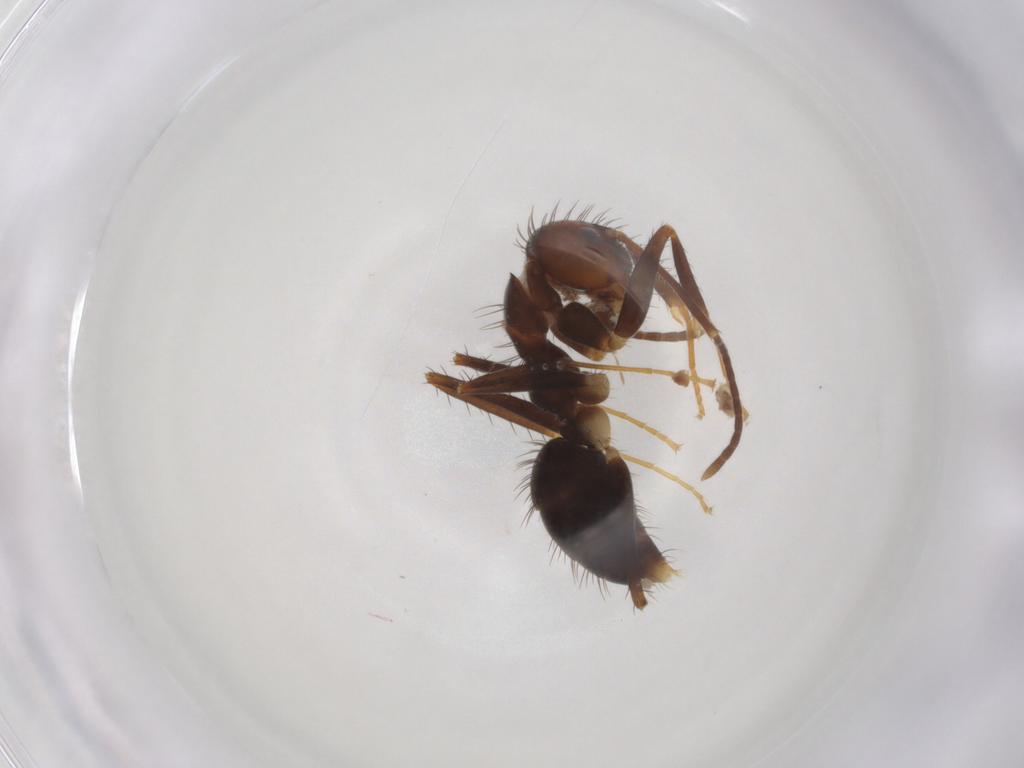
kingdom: Animalia
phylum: Arthropoda
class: Insecta
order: Hymenoptera
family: Formicidae
